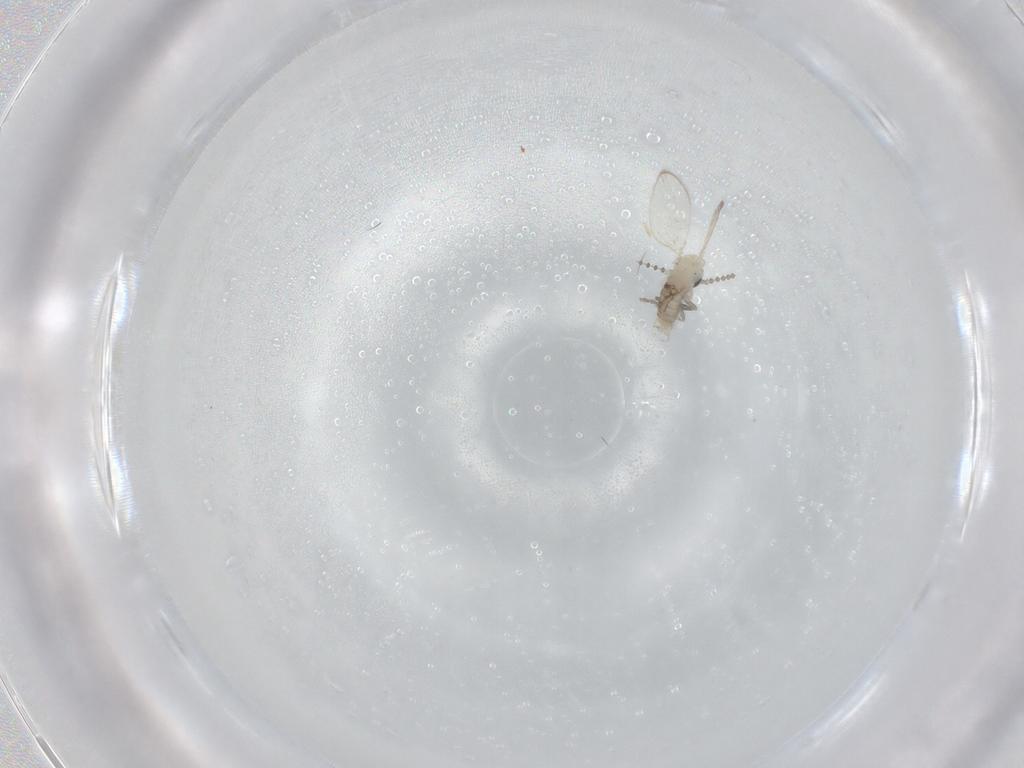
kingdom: Animalia
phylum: Arthropoda
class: Insecta
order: Diptera
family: Psychodidae
